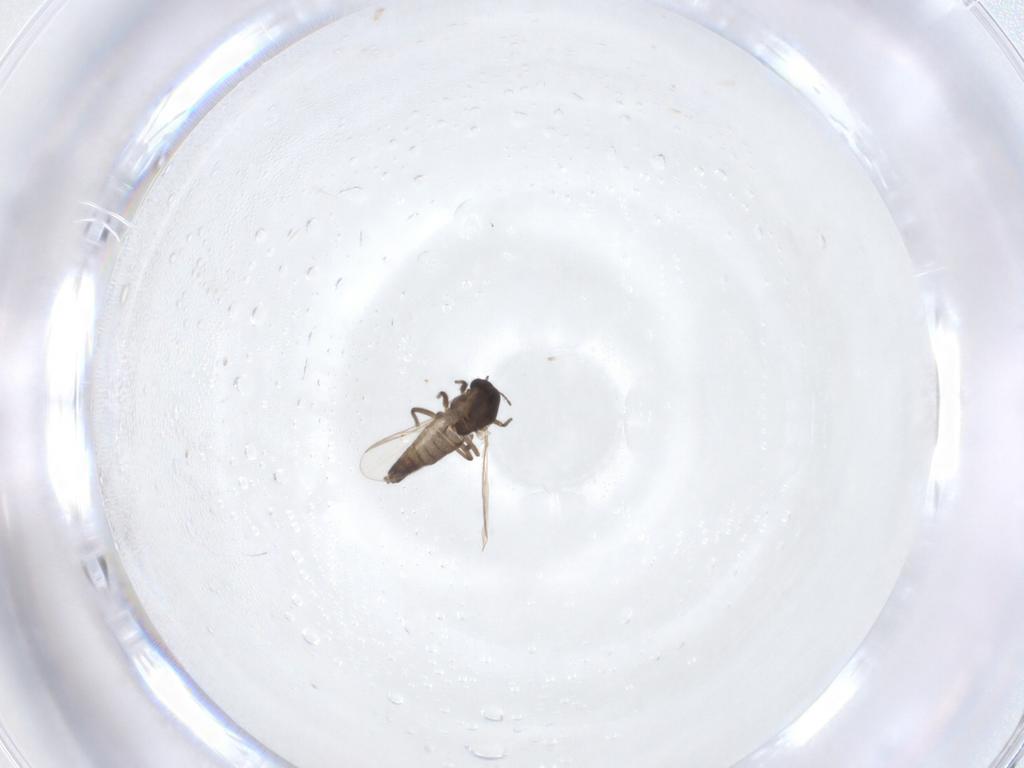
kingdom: Animalia
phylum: Arthropoda
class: Insecta
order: Diptera
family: Chironomidae
